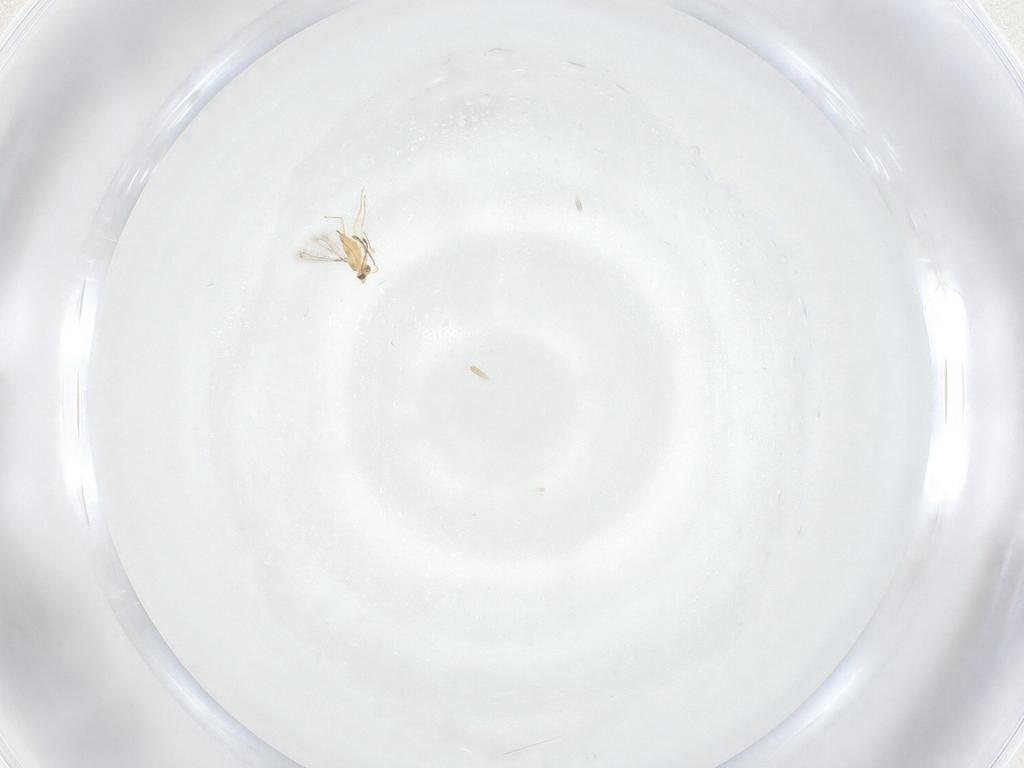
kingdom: Animalia
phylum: Arthropoda
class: Insecta
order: Hymenoptera
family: Mymaridae
